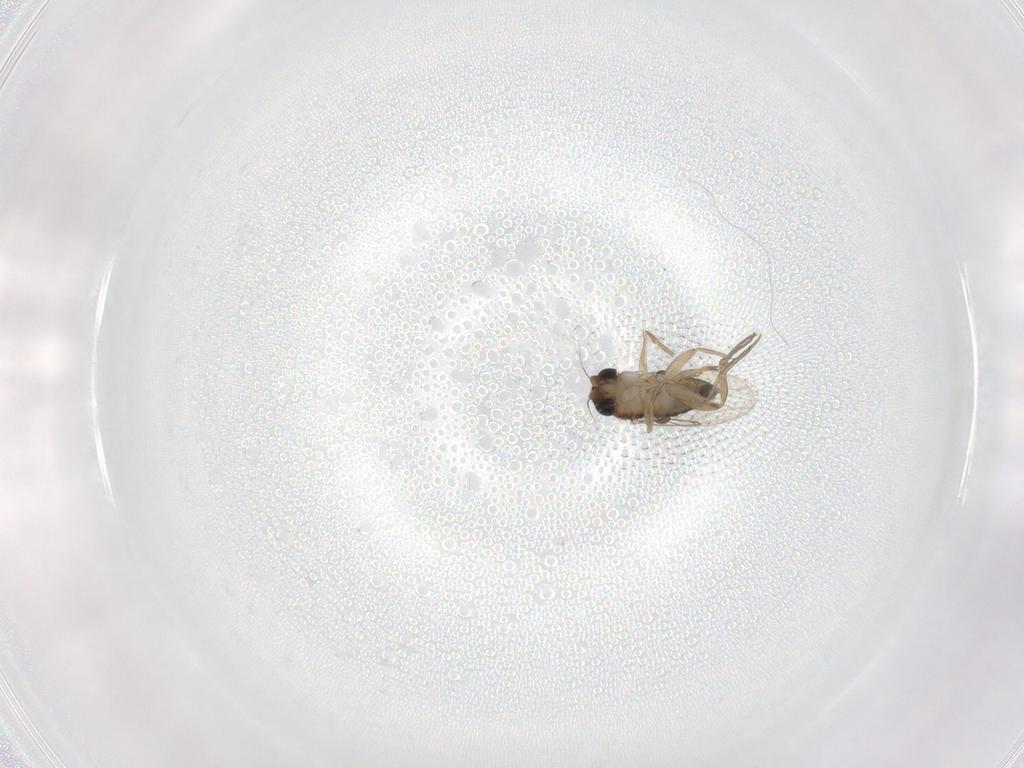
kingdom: Animalia
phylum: Arthropoda
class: Insecta
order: Diptera
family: Phoridae
